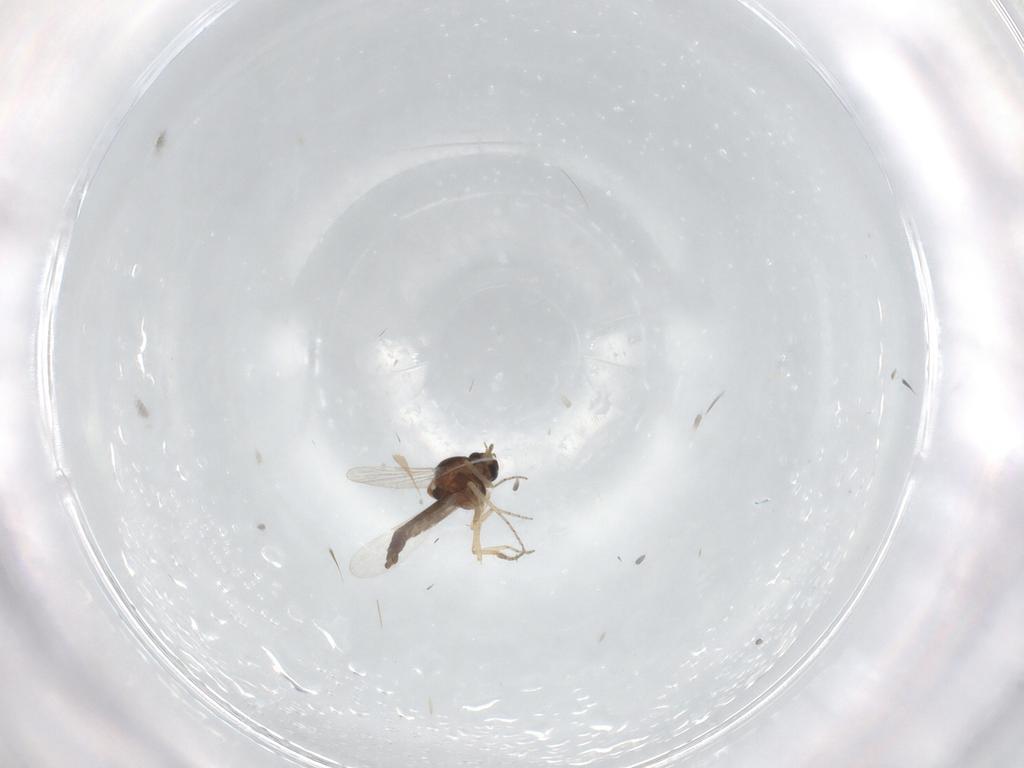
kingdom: Animalia
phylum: Arthropoda
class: Insecta
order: Diptera
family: Ceratopogonidae
